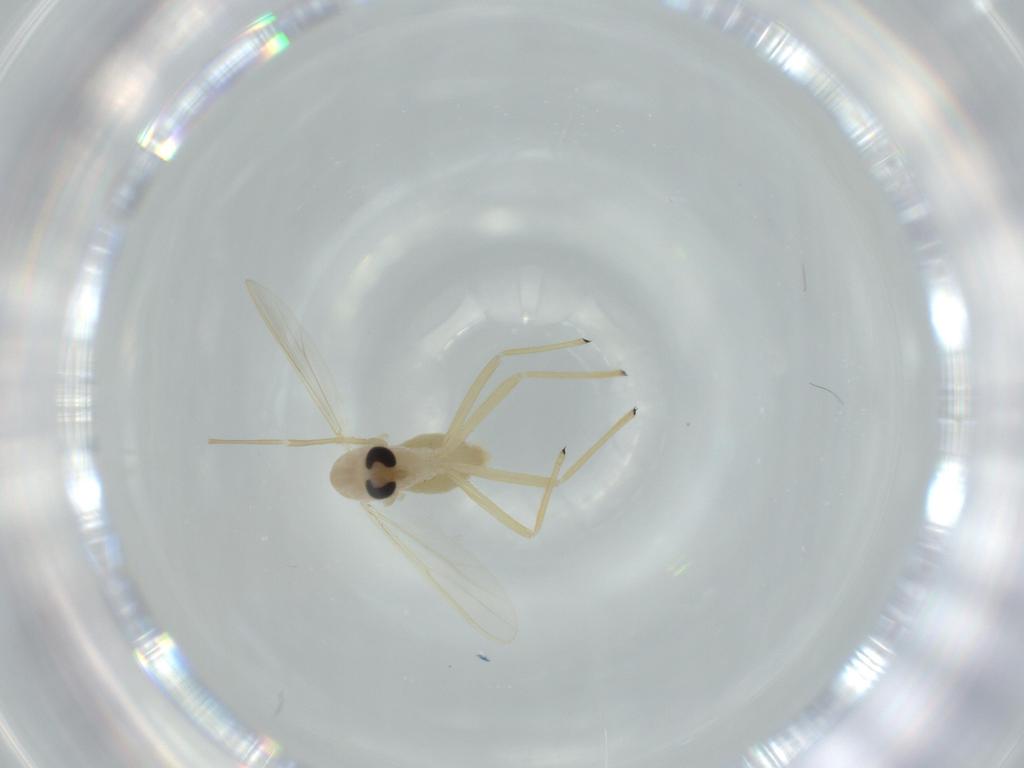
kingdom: Animalia
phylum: Arthropoda
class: Insecta
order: Diptera
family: Chironomidae
